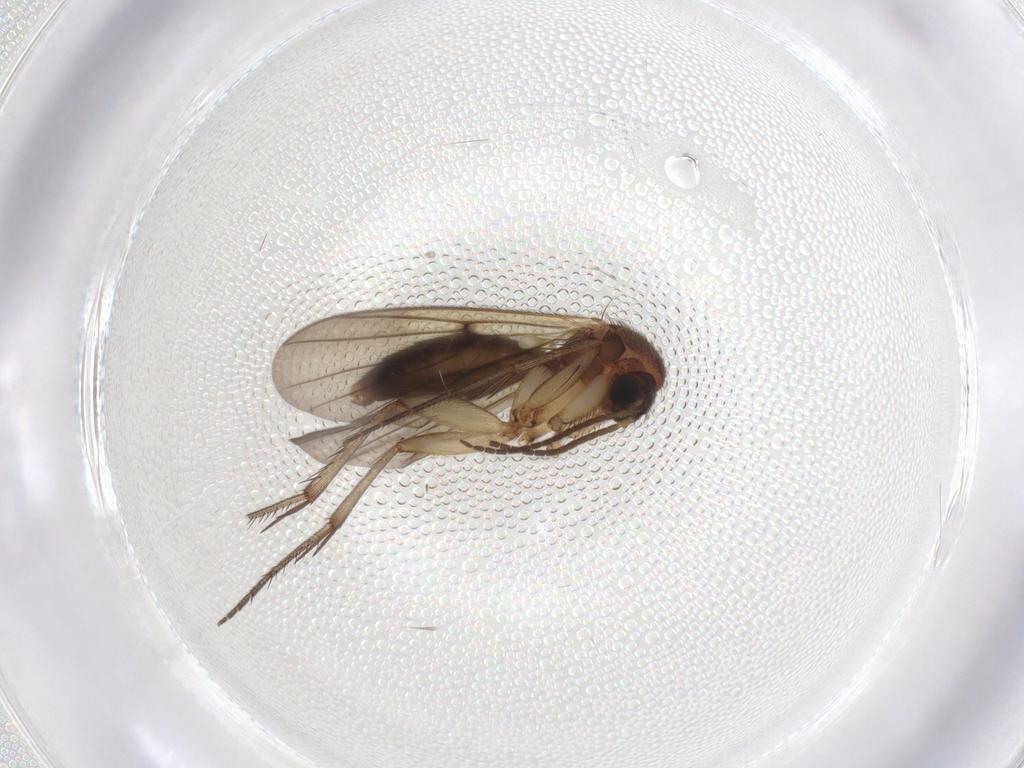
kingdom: Animalia
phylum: Arthropoda
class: Insecta
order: Diptera
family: Mycetophilidae
